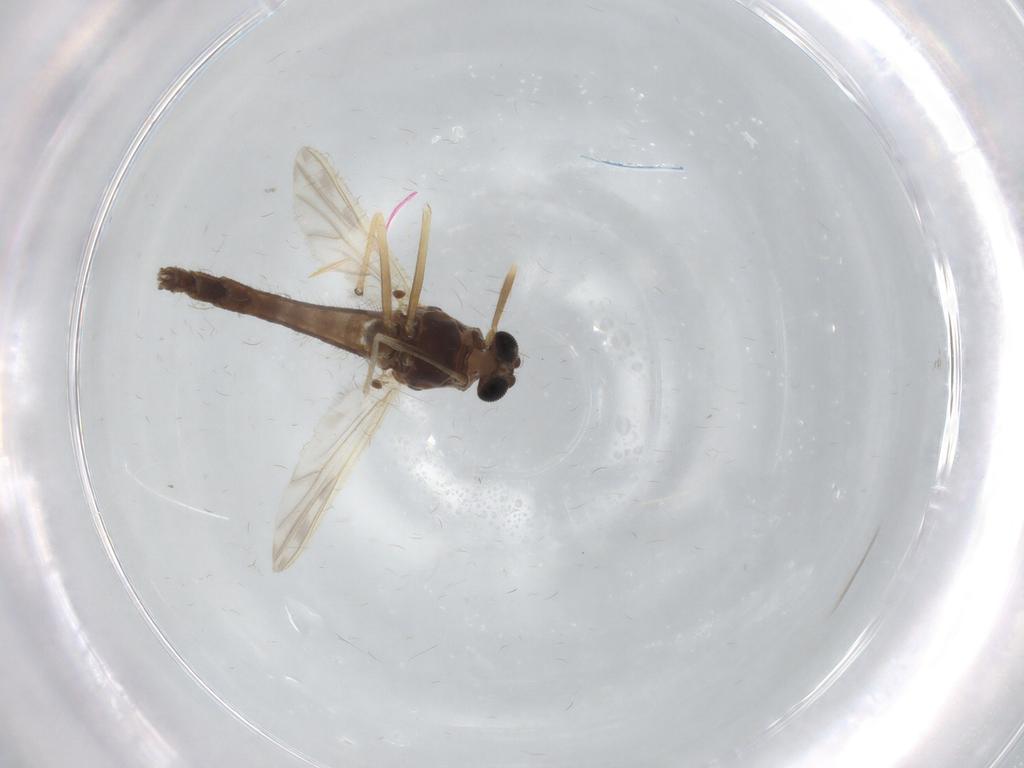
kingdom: Animalia
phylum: Arthropoda
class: Insecta
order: Diptera
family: Chironomidae
